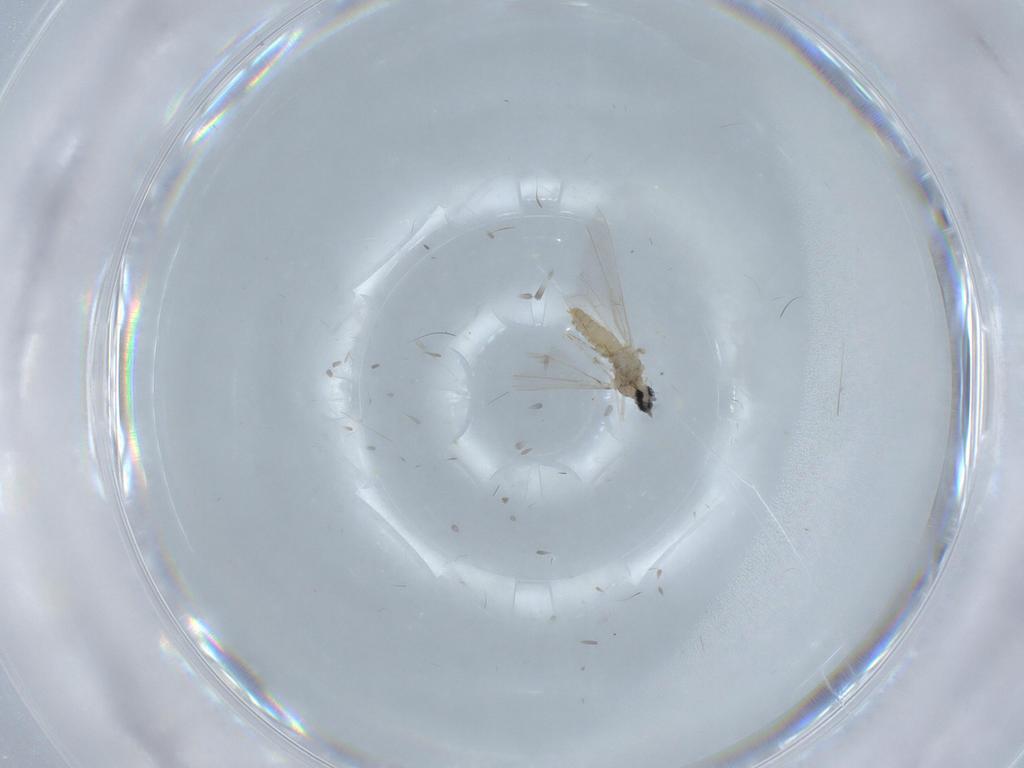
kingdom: Animalia
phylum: Arthropoda
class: Insecta
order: Diptera
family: Cecidomyiidae
